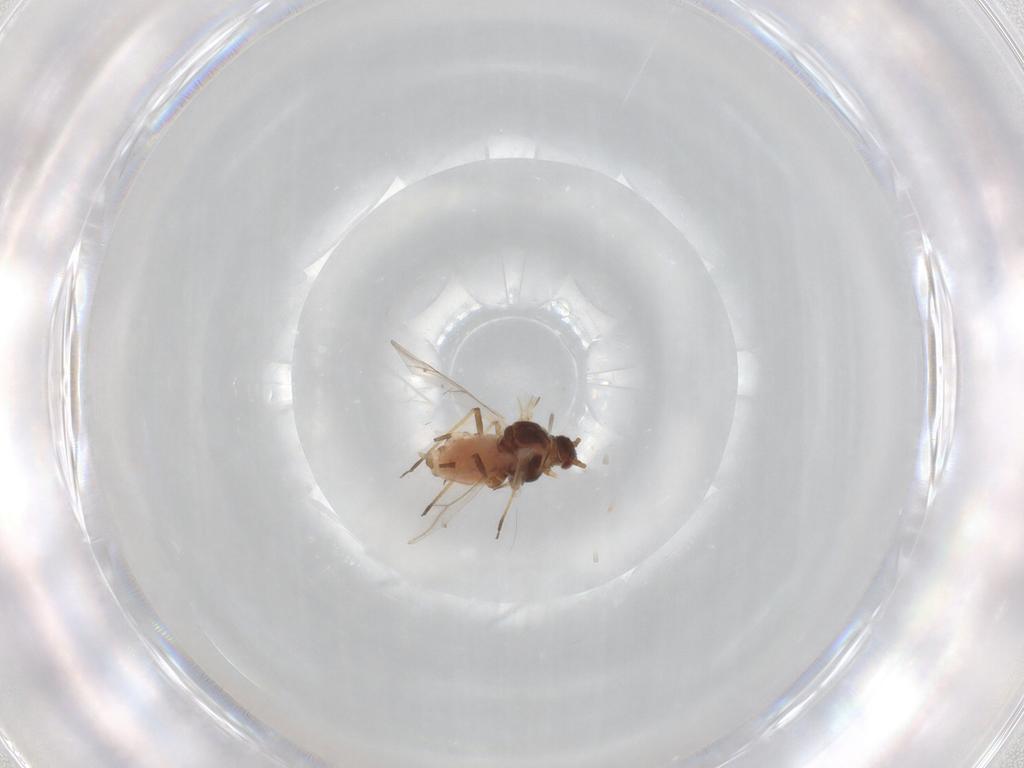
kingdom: Animalia
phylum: Arthropoda
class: Insecta
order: Hemiptera
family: Aphididae
